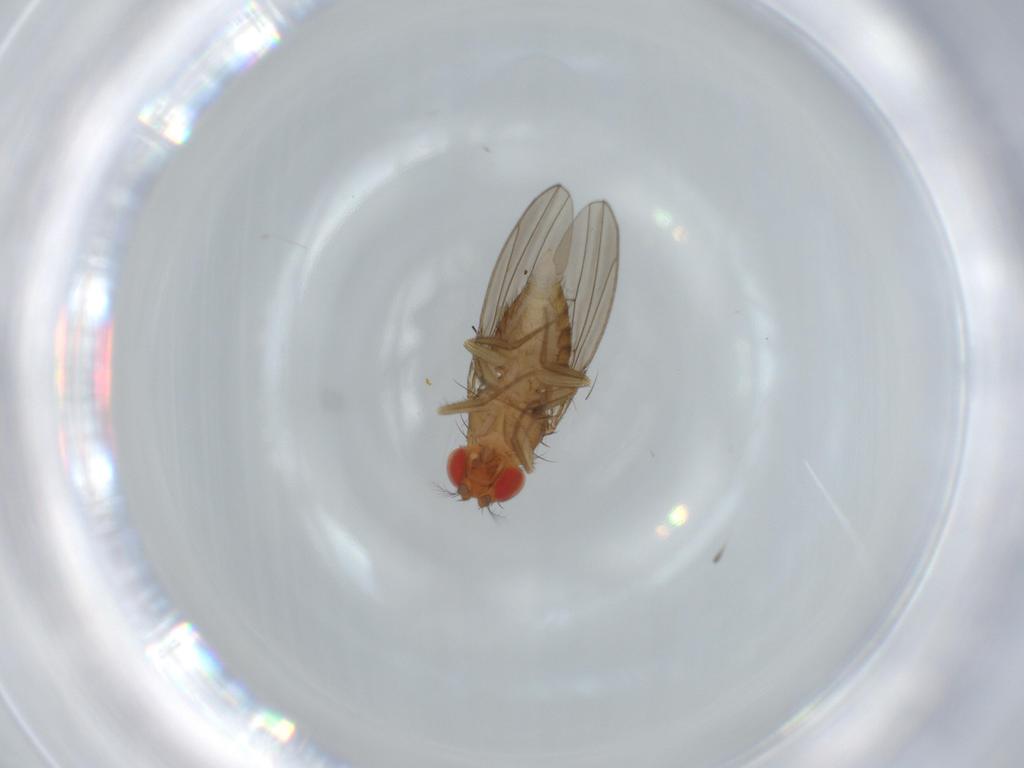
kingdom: Animalia
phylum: Arthropoda
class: Insecta
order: Diptera
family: Drosophilidae
